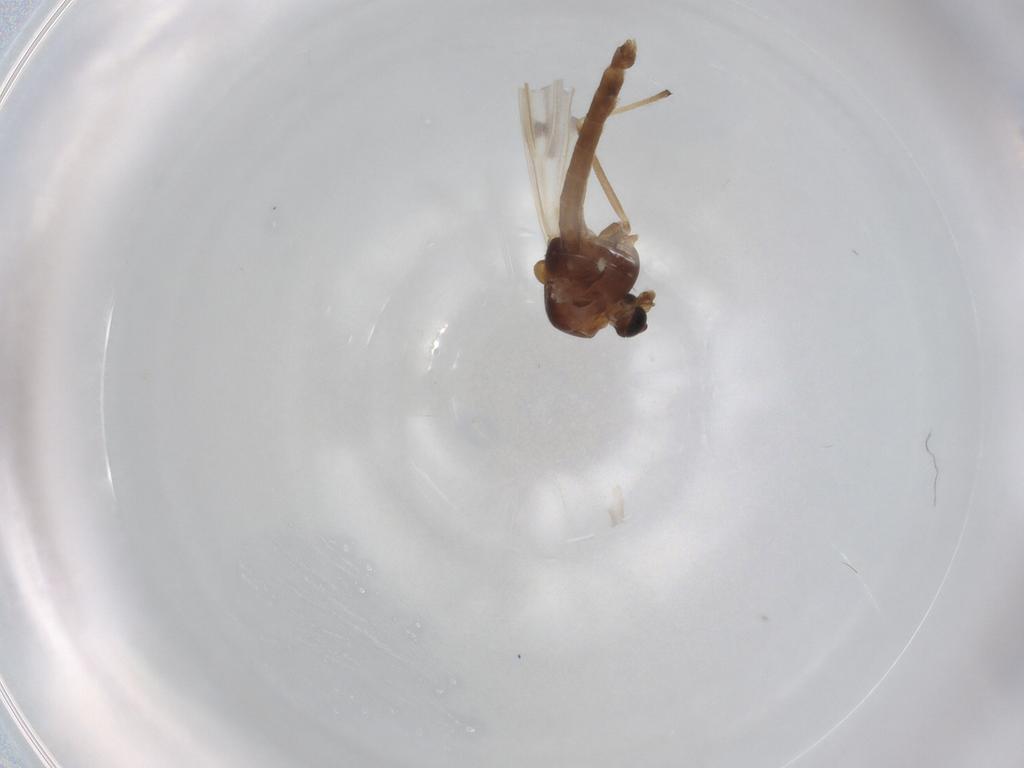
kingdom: Animalia
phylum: Arthropoda
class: Insecta
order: Diptera
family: Chironomidae
